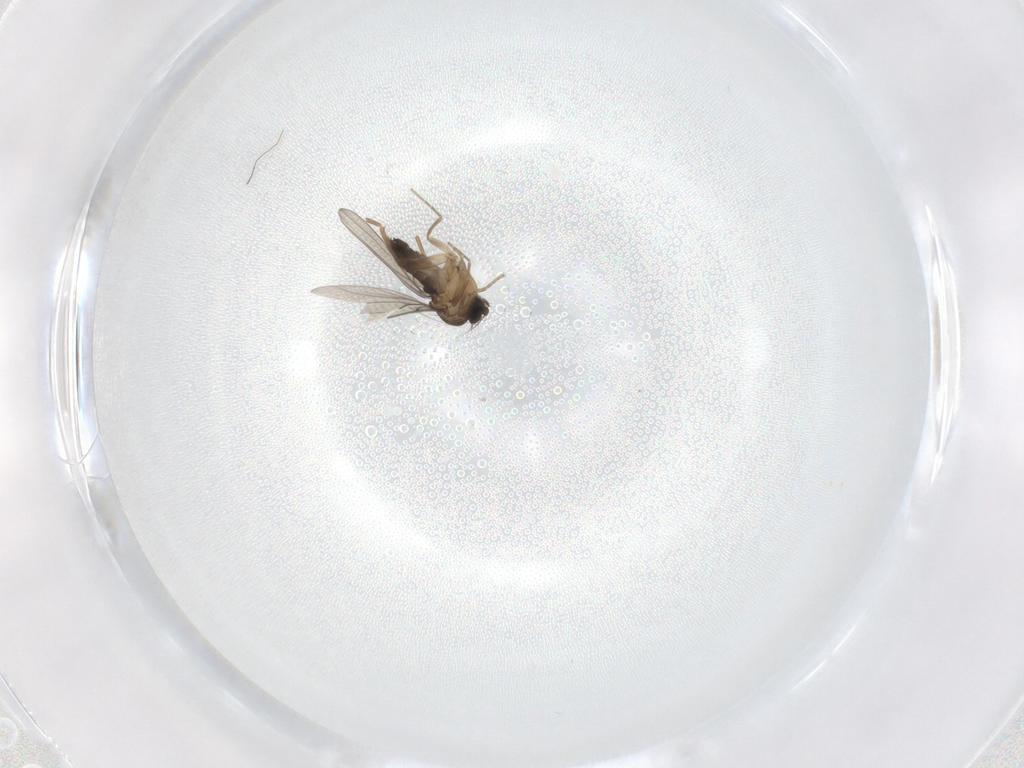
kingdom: Animalia
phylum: Arthropoda
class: Insecta
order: Diptera
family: Phoridae
